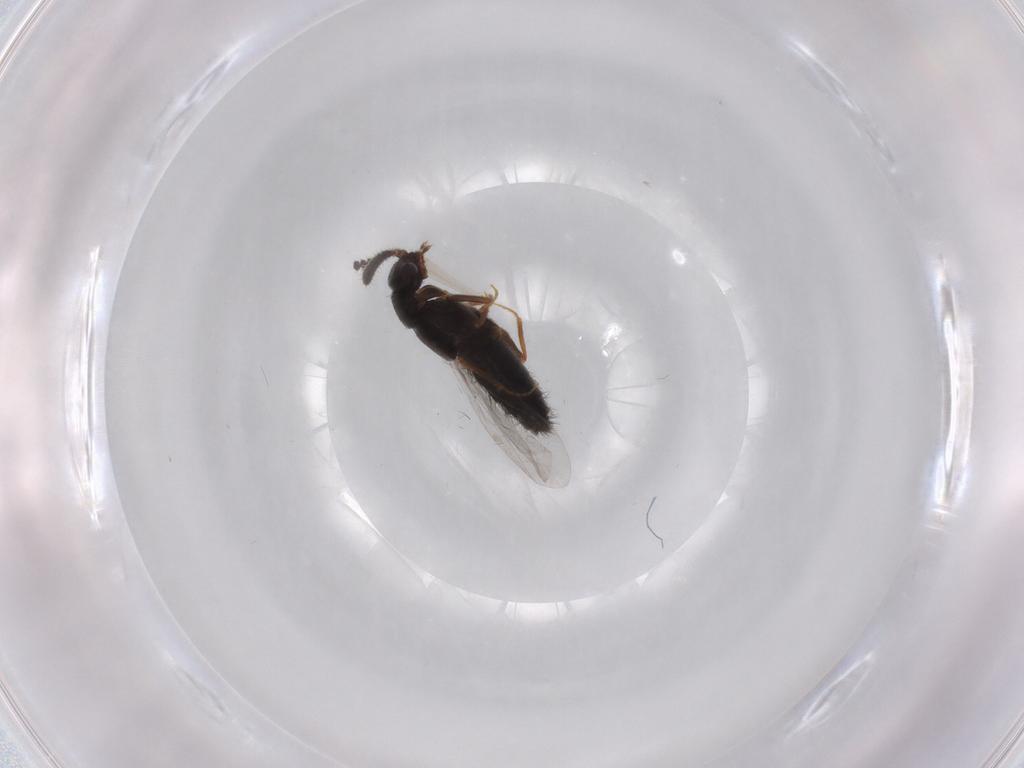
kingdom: Animalia
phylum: Arthropoda
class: Insecta
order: Coleoptera
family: Staphylinidae
